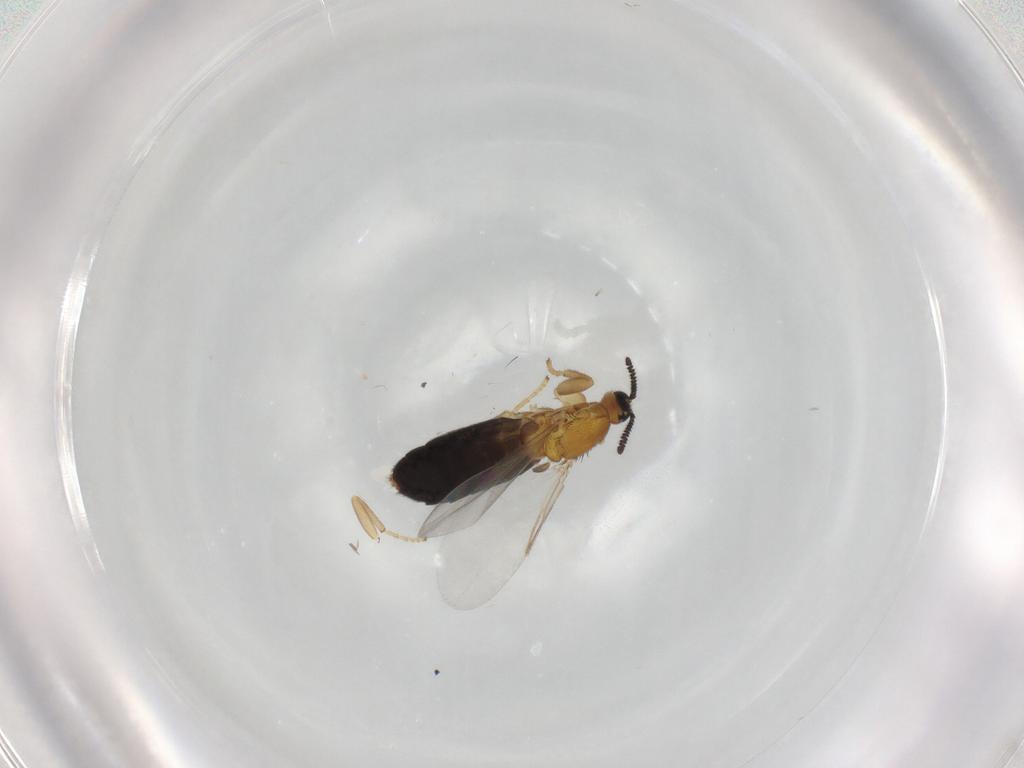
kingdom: Animalia
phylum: Arthropoda
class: Insecta
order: Diptera
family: Scatopsidae
